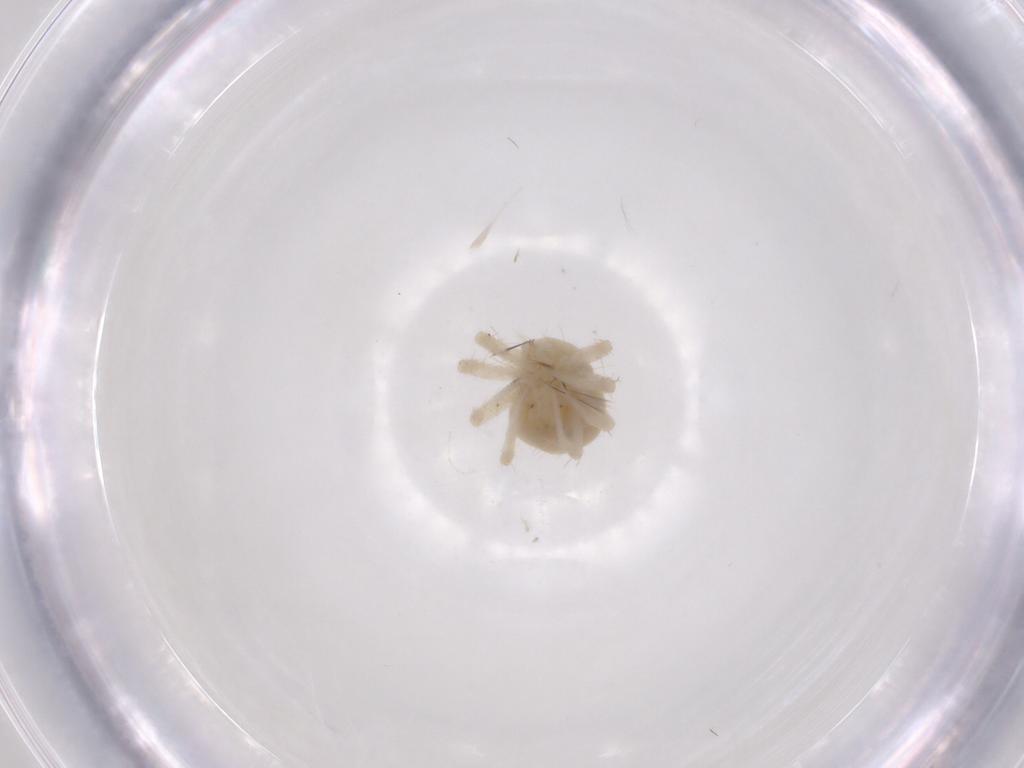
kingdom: Animalia
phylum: Arthropoda
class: Arachnida
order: Trombidiformes
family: Anystidae
